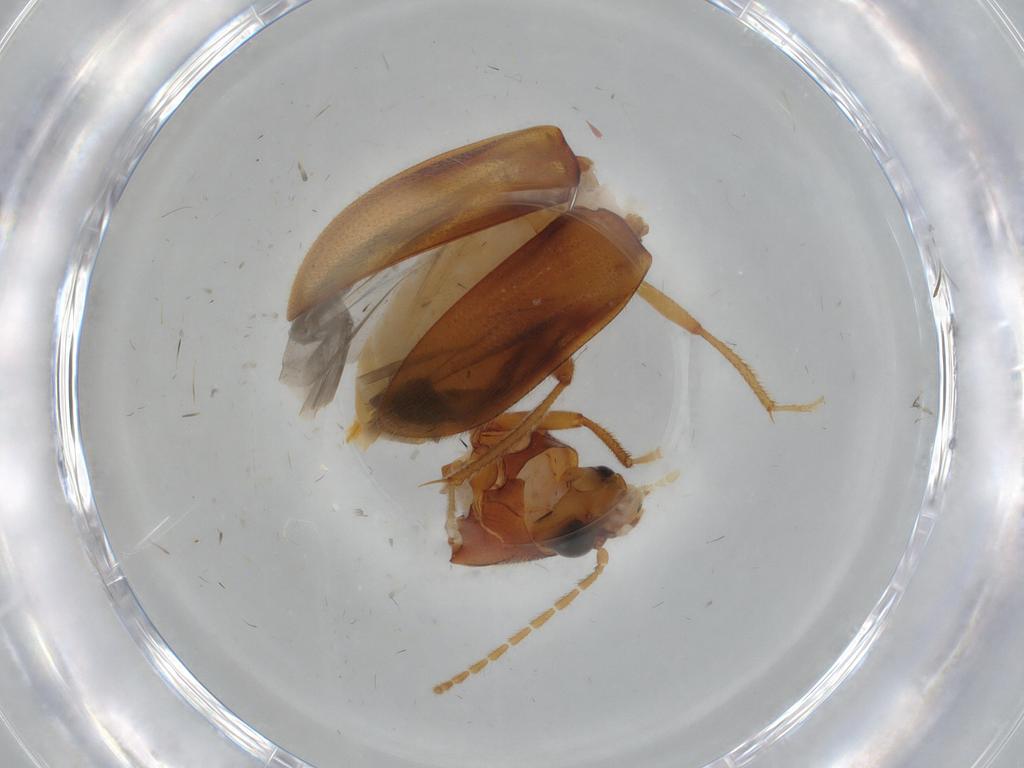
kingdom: Animalia
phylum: Arthropoda
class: Insecta
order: Coleoptera
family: Ptilodactylidae
